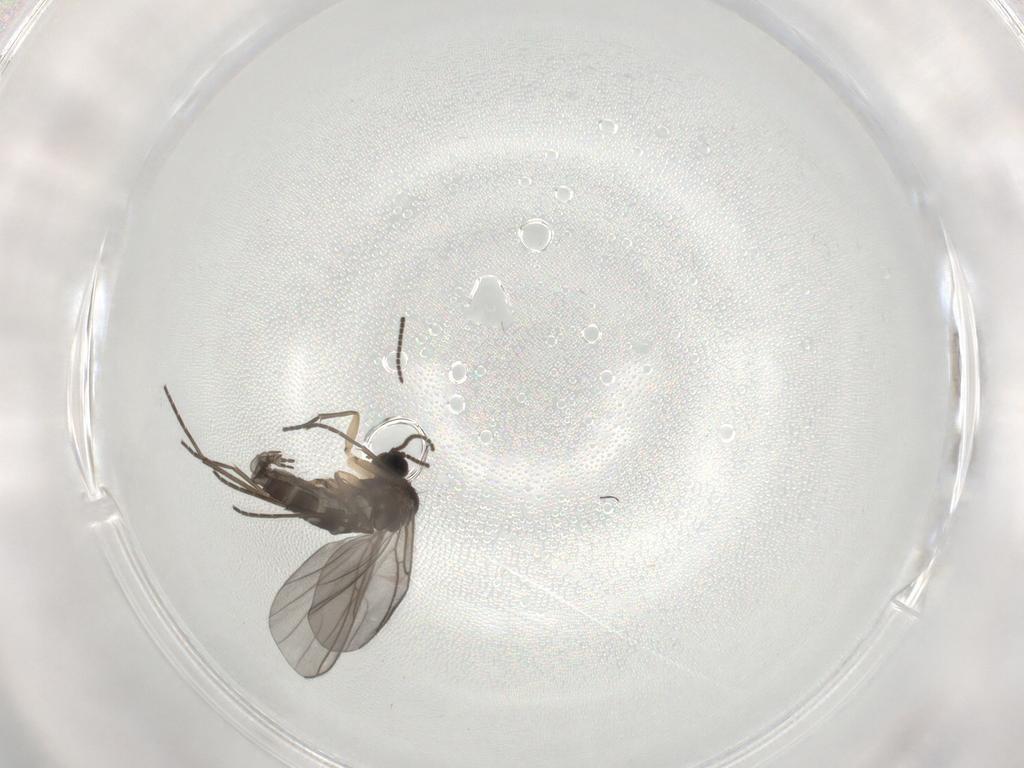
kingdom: Animalia
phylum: Arthropoda
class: Insecta
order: Diptera
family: Sciaridae
